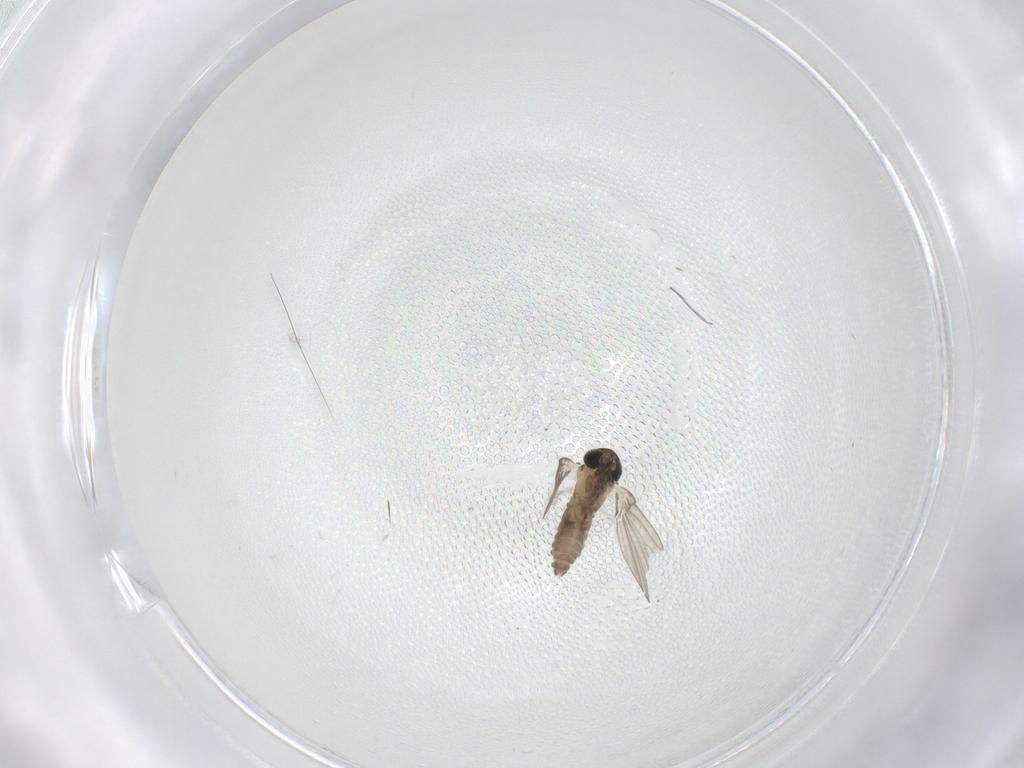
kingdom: Animalia
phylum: Arthropoda
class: Insecta
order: Diptera
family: Psychodidae
